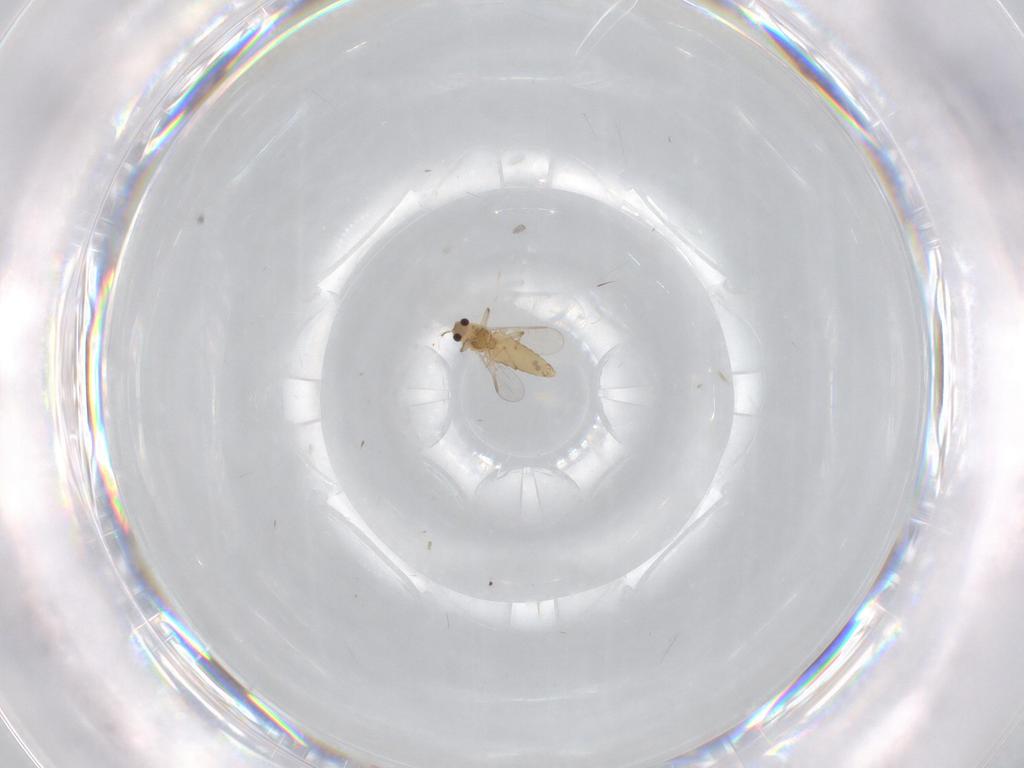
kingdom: Animalia
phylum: Arthropoda
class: Insecta
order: Diptera
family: Chironomidae
